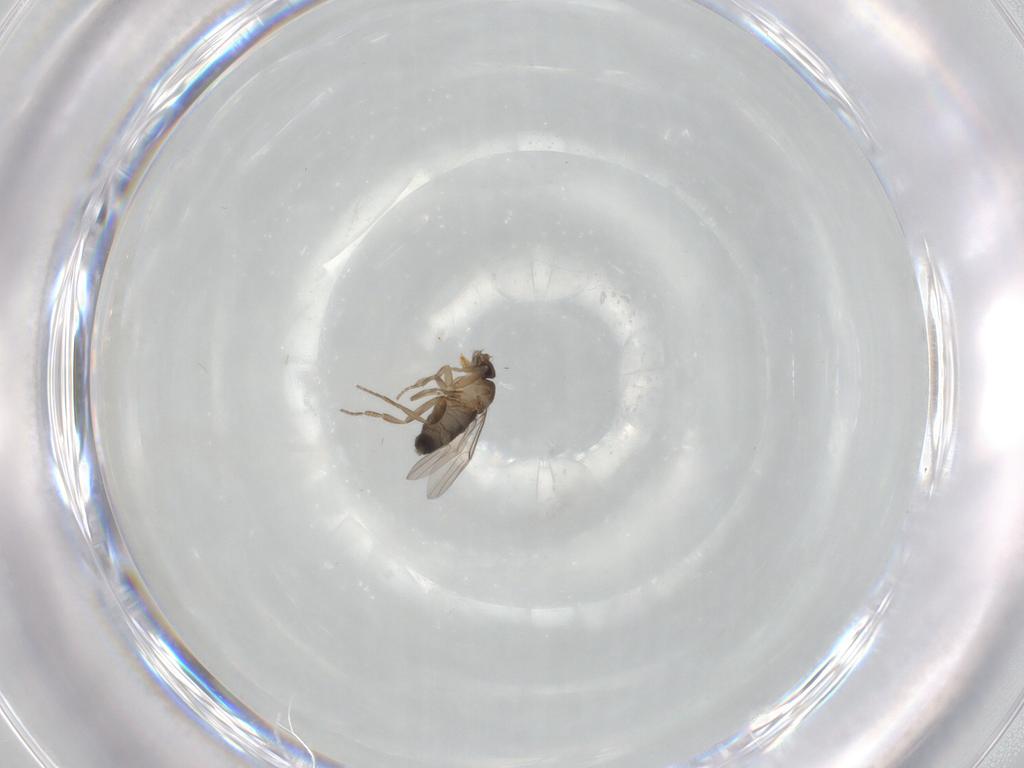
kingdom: Animalia
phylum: Arthropoda
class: Insecta
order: Diptera
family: Phoridae
